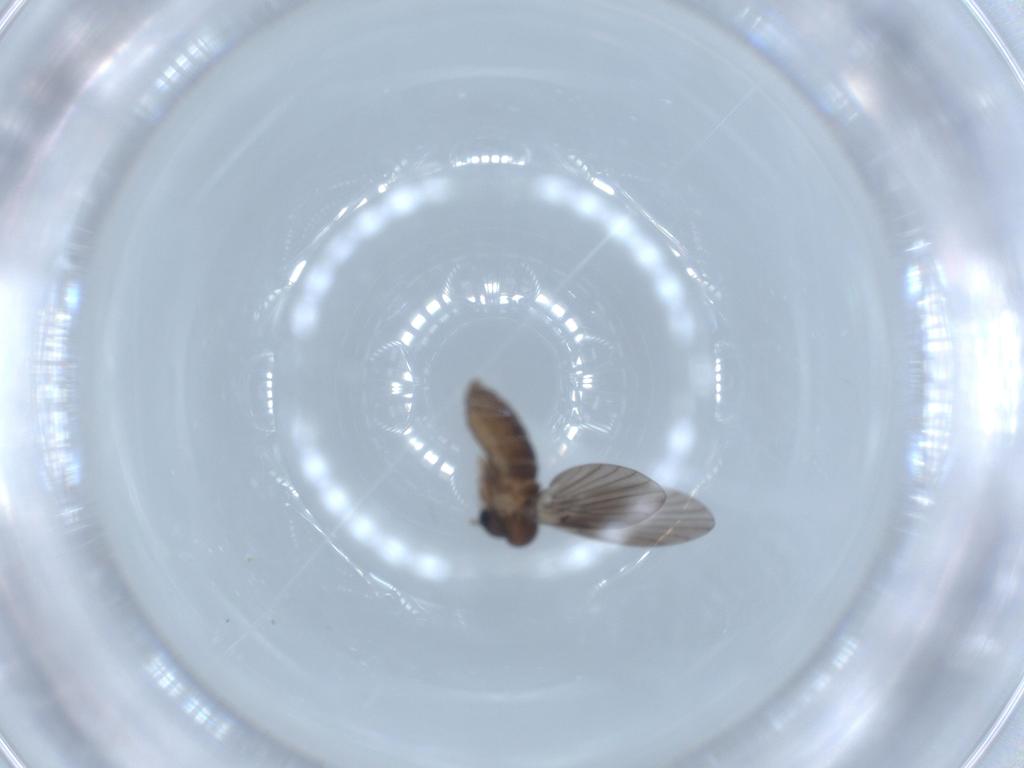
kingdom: Animalia
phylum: Arthropoda
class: Insecta
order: Diptera
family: Psychodidae
